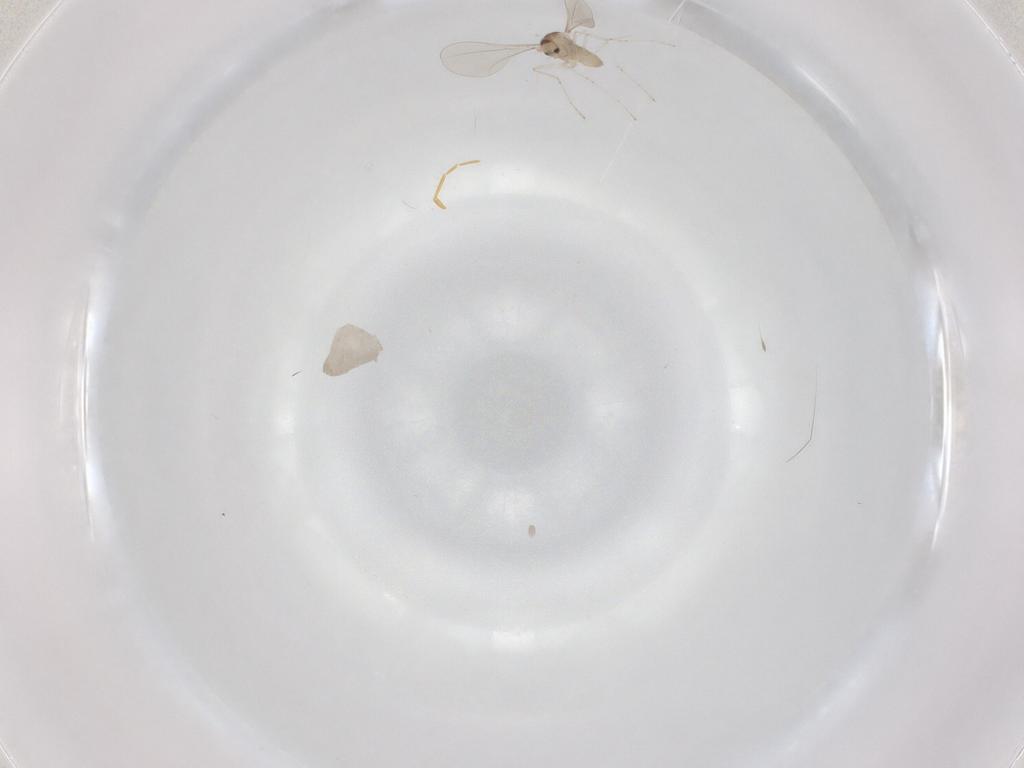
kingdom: Animalia
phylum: Arthropoda
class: Insecta
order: Diptera
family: Cecidomyiidae
